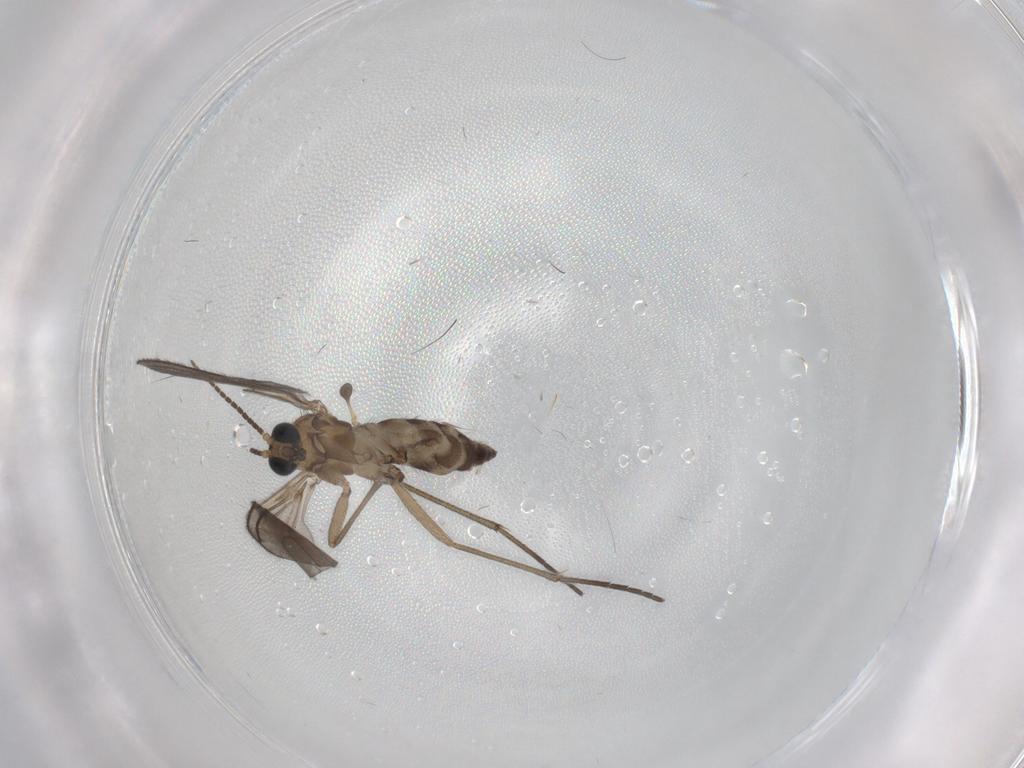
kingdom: Animalia
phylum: Arthropoda
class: Insecta
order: Diptera
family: Sciaridae
